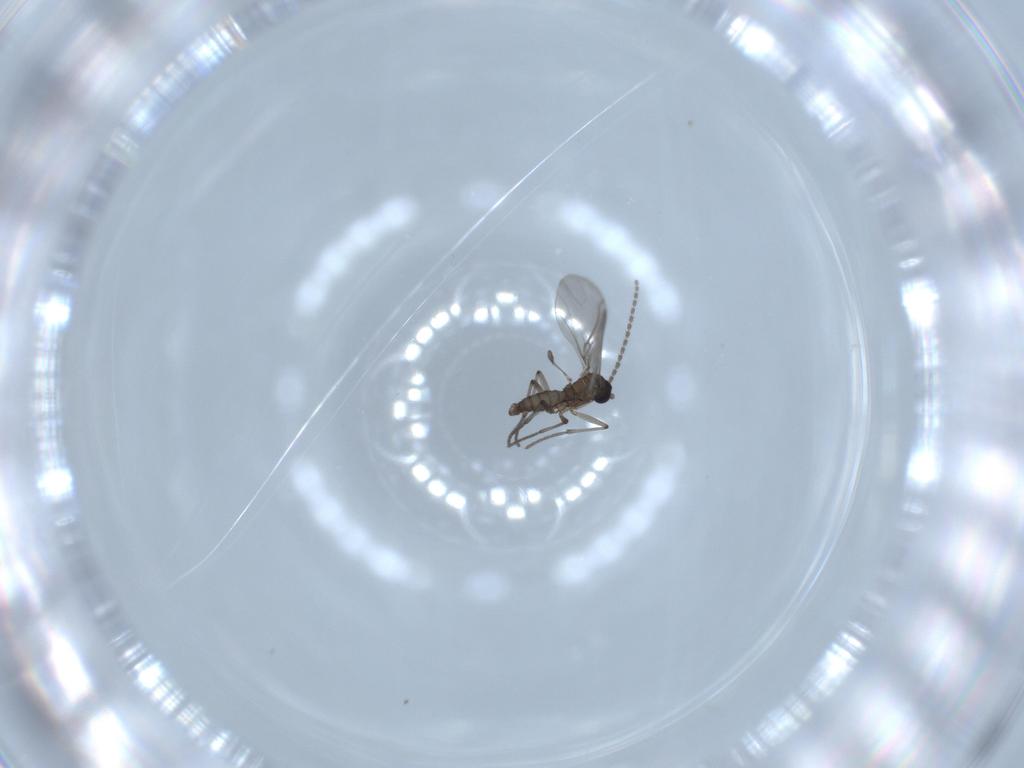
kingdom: Animalia
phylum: Arthropoda
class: Insecta
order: Diptera
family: Sciaridae
